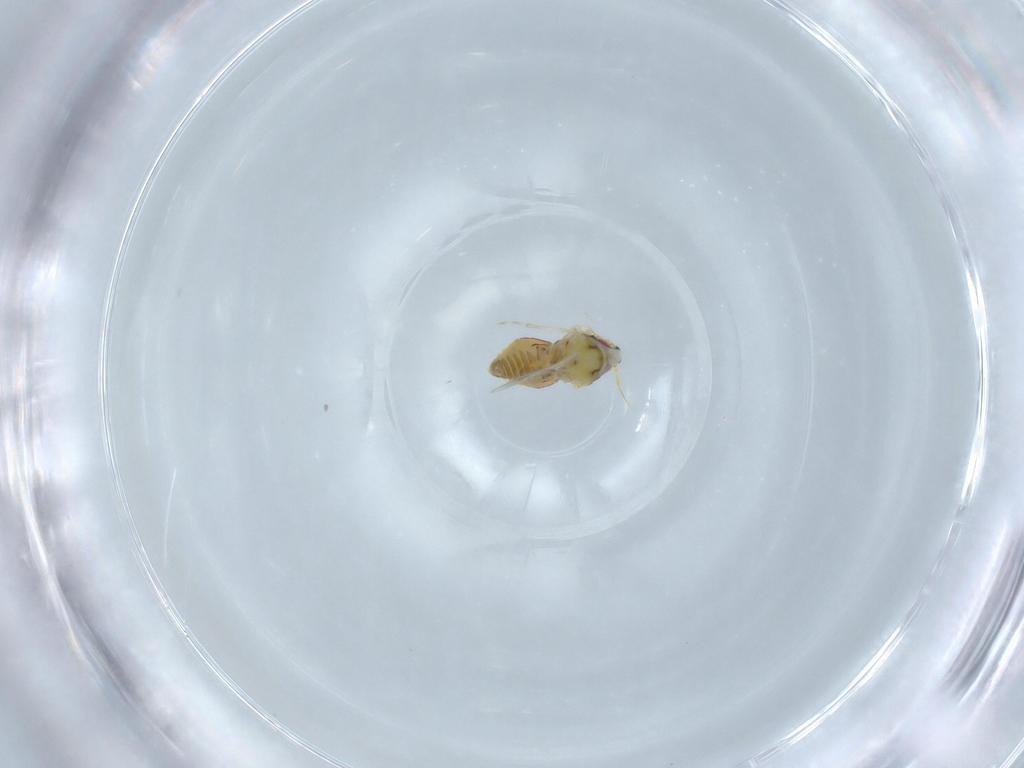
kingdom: Animalia
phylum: Arthropoda
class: Insecta
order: Hemiptera
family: Aleyrodidae
